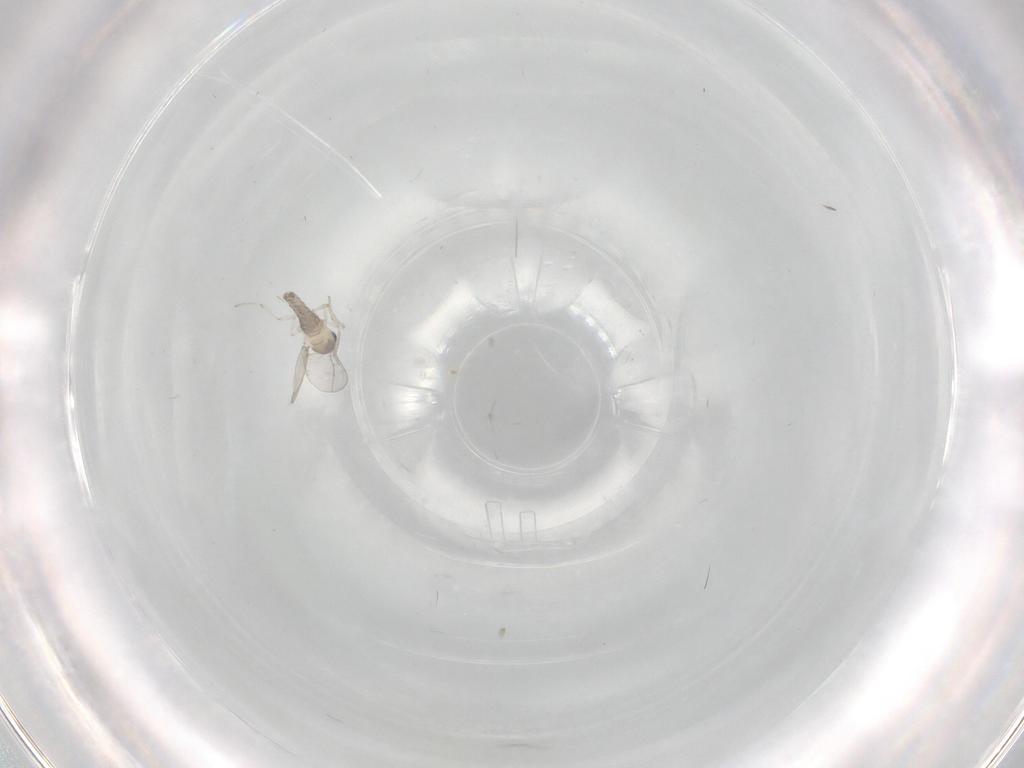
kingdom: Animalia
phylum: Arthropoda
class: Insecta
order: Diptera
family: Cecidomyiidae
